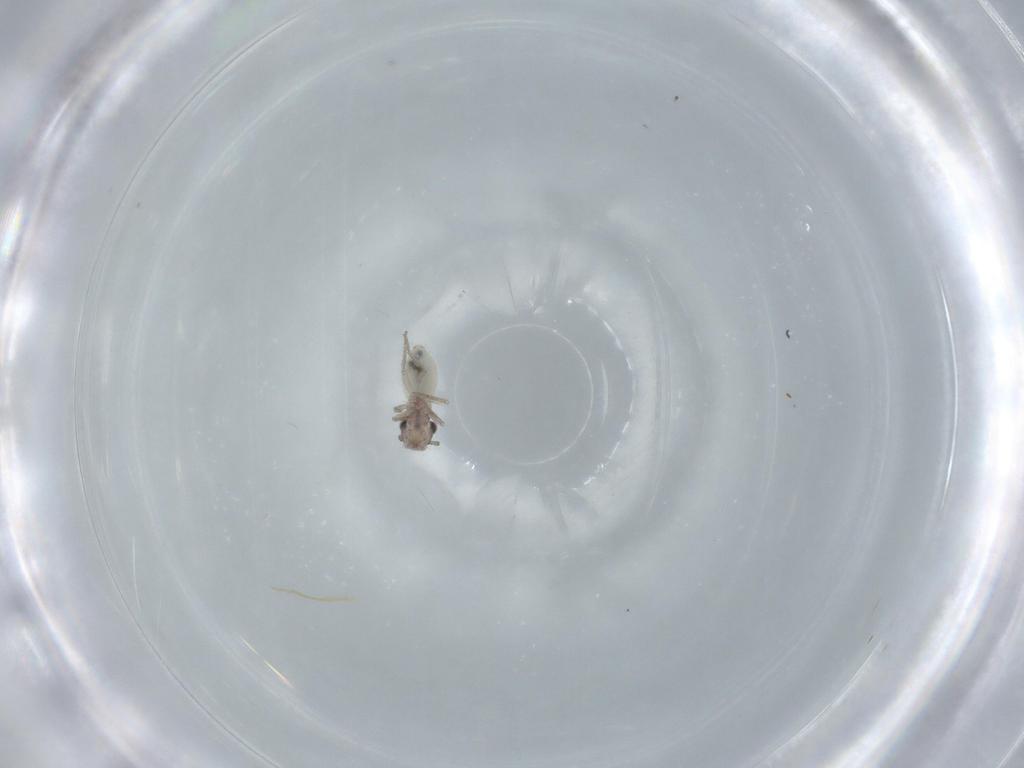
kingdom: Animalia
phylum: Arthropoda
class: Insecta
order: Psocodea
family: Lepidopsocidae
